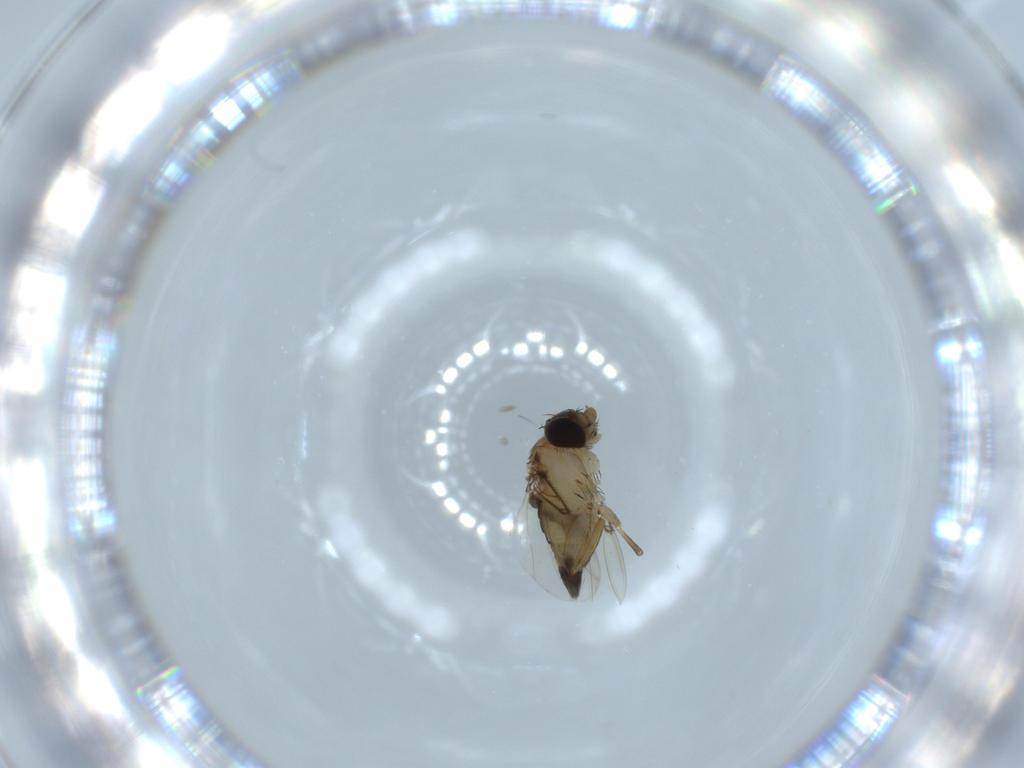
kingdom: Animalia
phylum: Arthropoda
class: Insecta
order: Diptera
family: Phoridae
